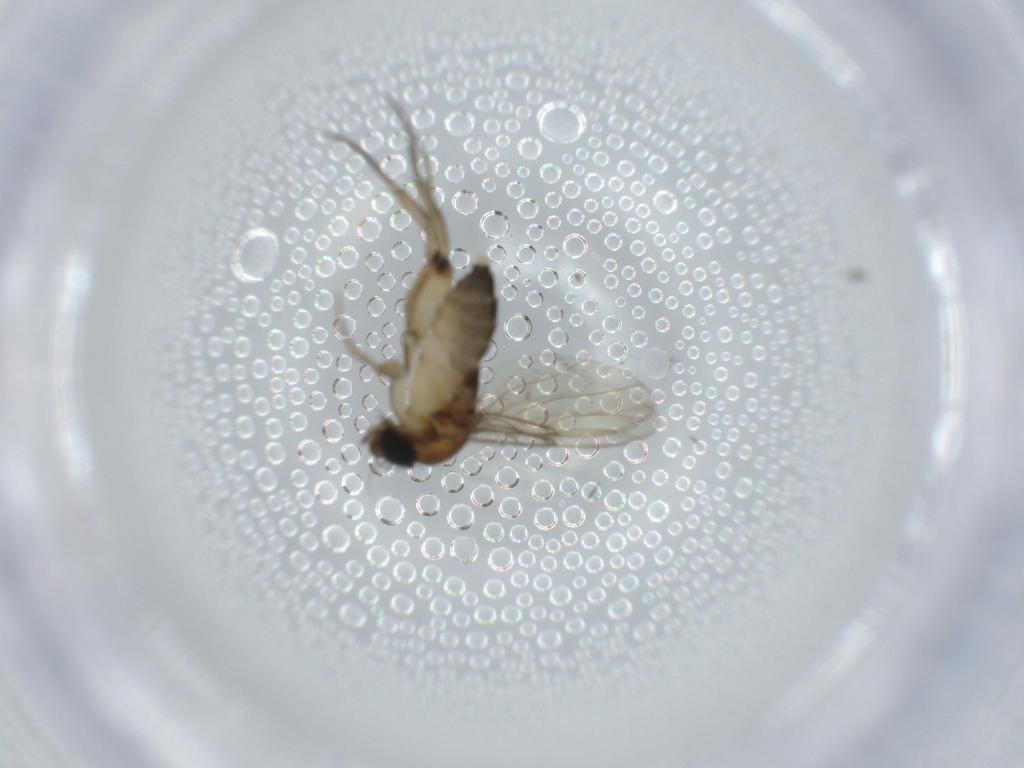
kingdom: Animalia
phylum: Arthropoda
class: Insecta
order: Diptera
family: Phoridae
